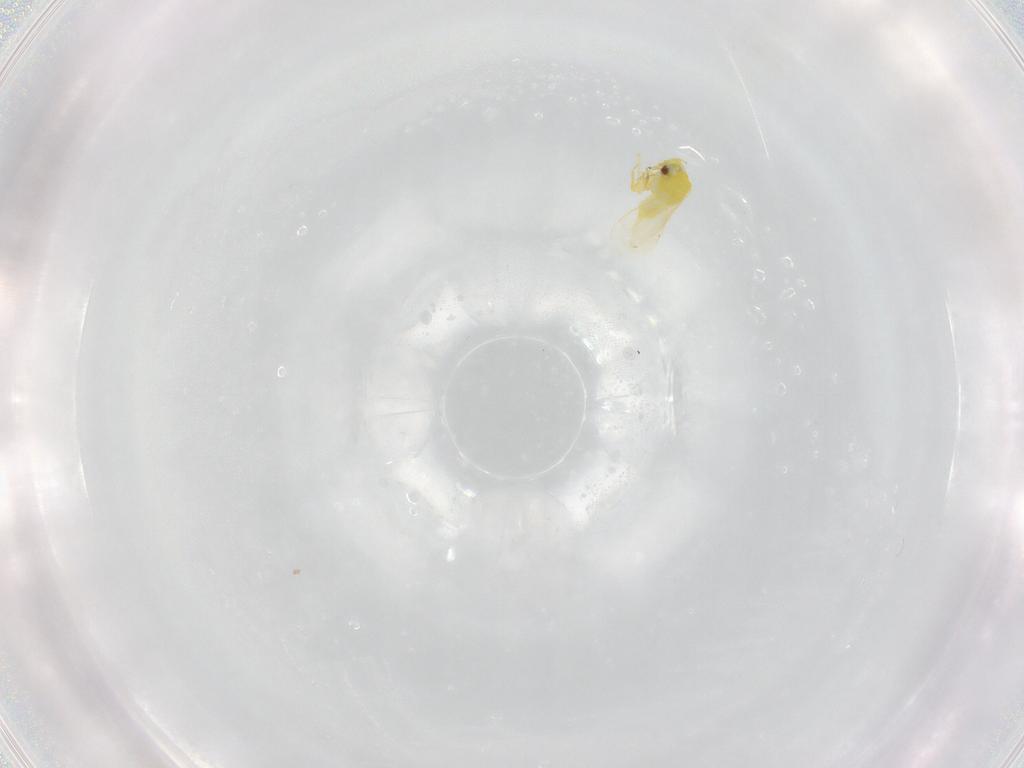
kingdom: Animalia
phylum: Arthropoda
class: Insecta
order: Hemiptera
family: Aleyrodidae
